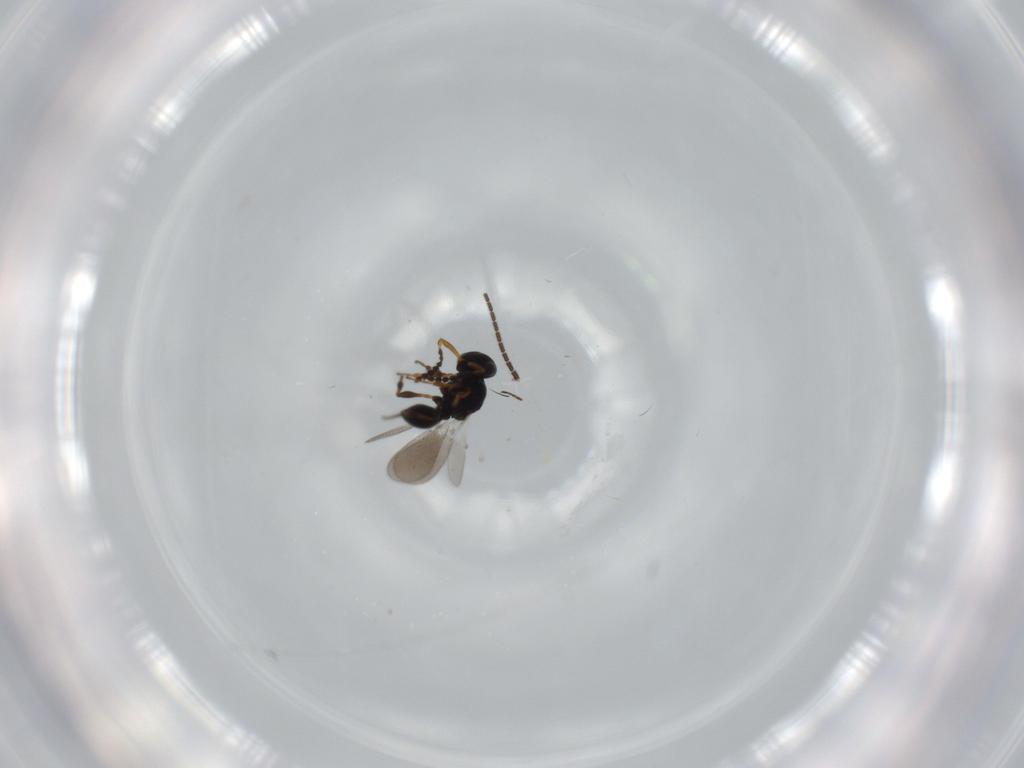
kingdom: Animalia
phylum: Arthropoda
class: Insecta
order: Hymenoptera
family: Platygastridae
